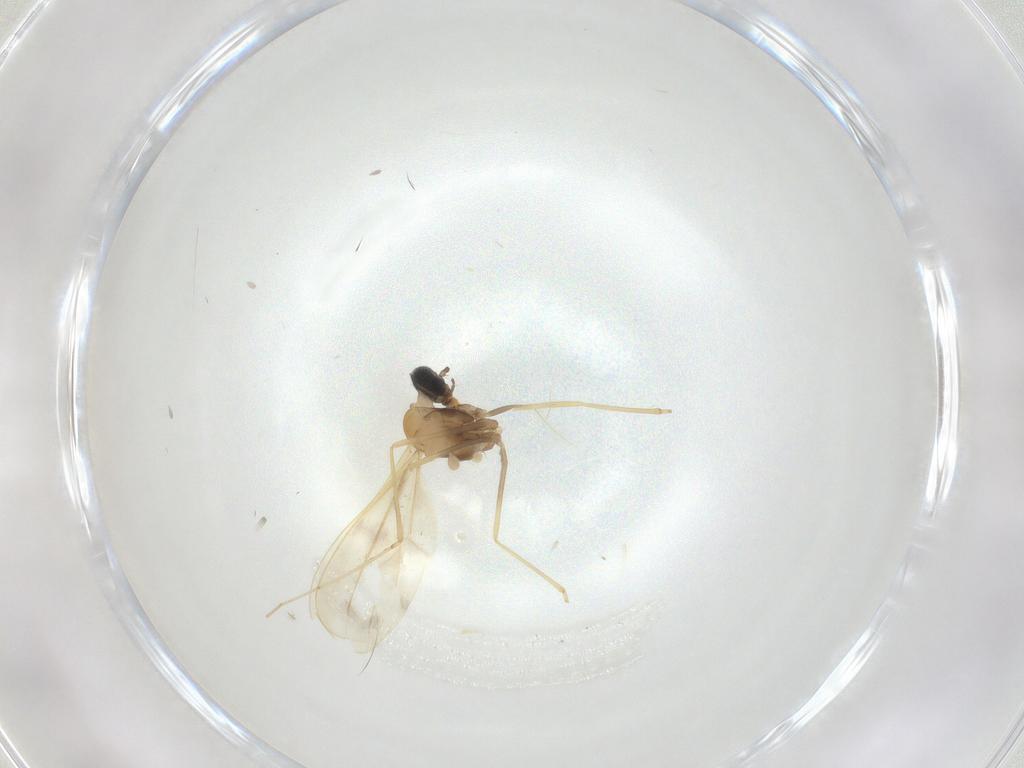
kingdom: Animalia
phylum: Arthropoda
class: Insecta
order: Diptera
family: Cecidomyiidae
